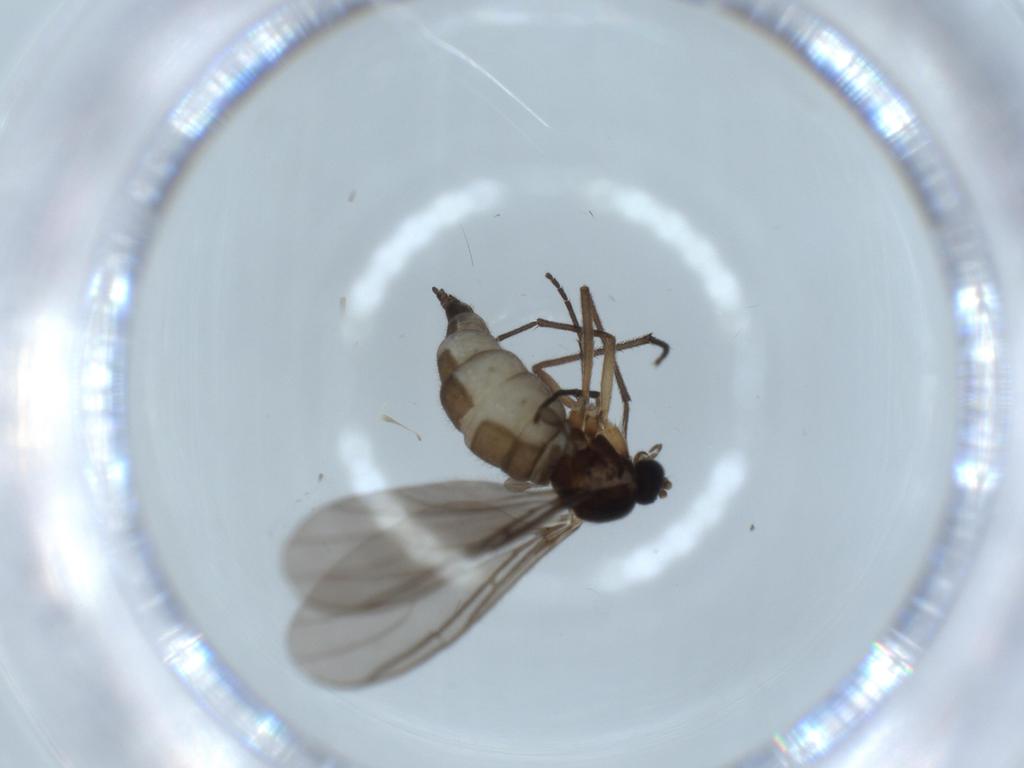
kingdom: Animalia
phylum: Arthropoda
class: Insecta
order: Diptera
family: Sciaridae
